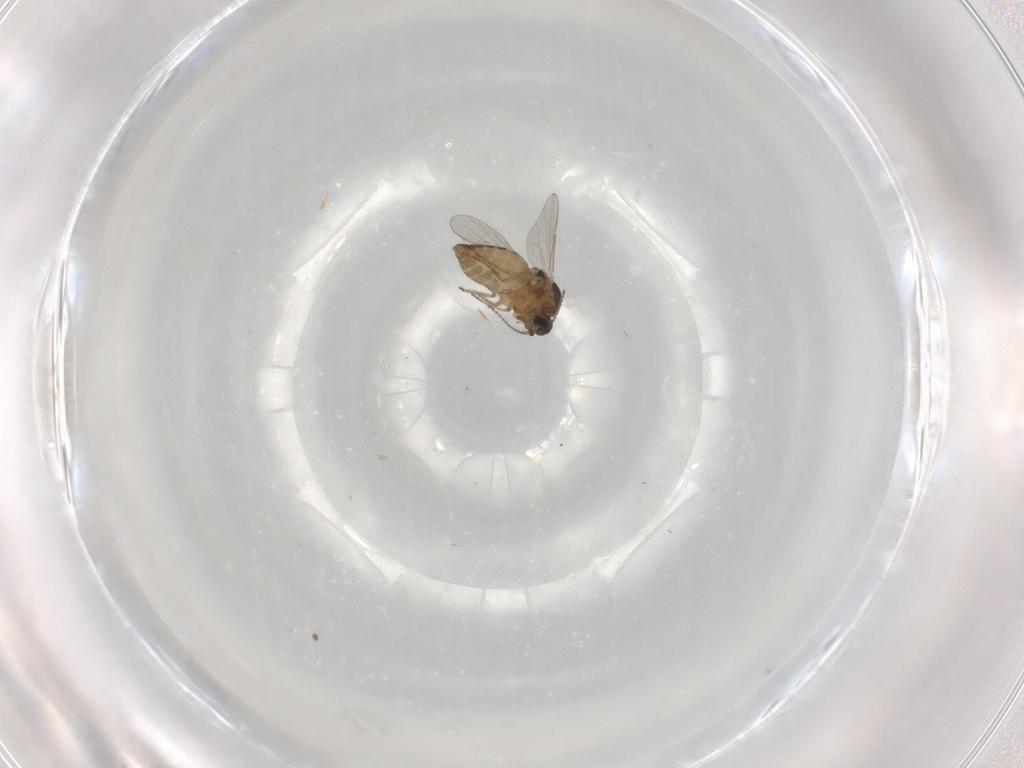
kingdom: Animalia
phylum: Arthropoda
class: Insecta
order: Diptera
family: Ceratopogonidae
